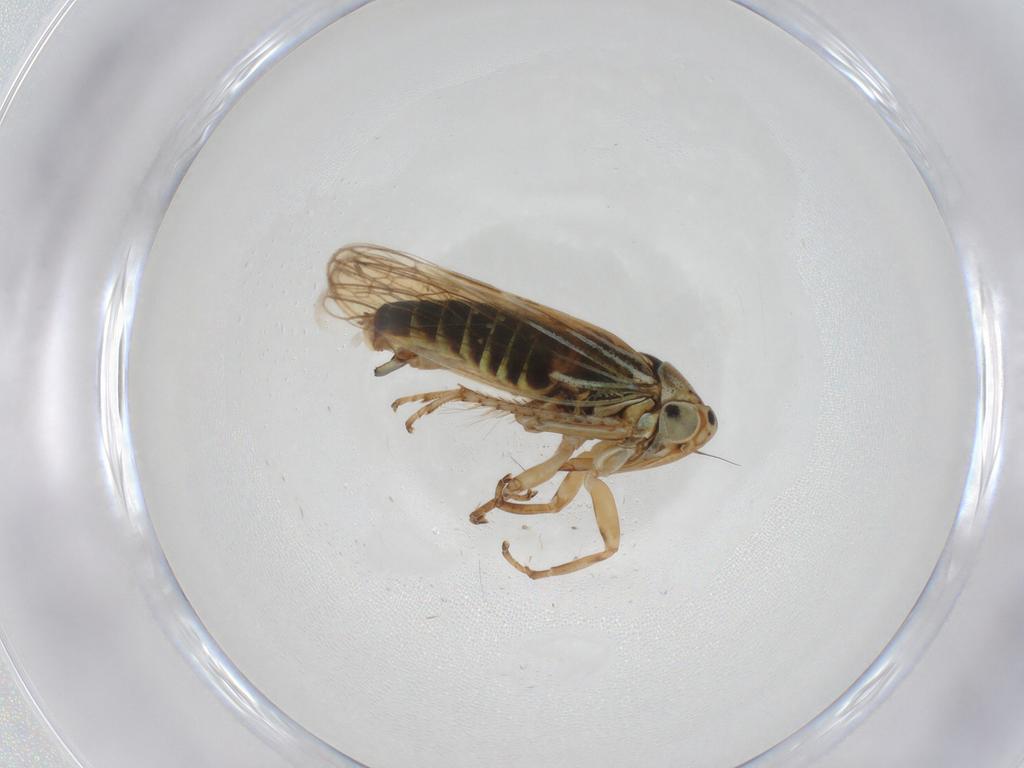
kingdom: Animalia
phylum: Arthropoda
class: Insecta
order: Hemiptera
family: Cicadellidae
